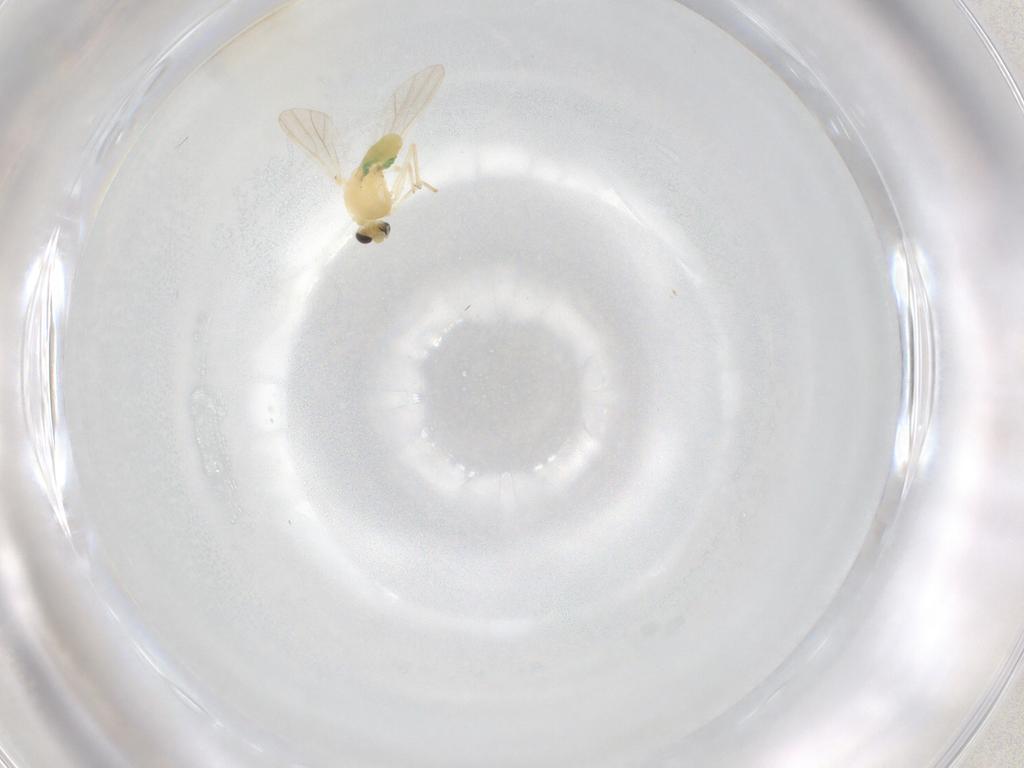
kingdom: Animalia
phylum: Arthropoda
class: Insecta
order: Diptera
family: Chironomidae
